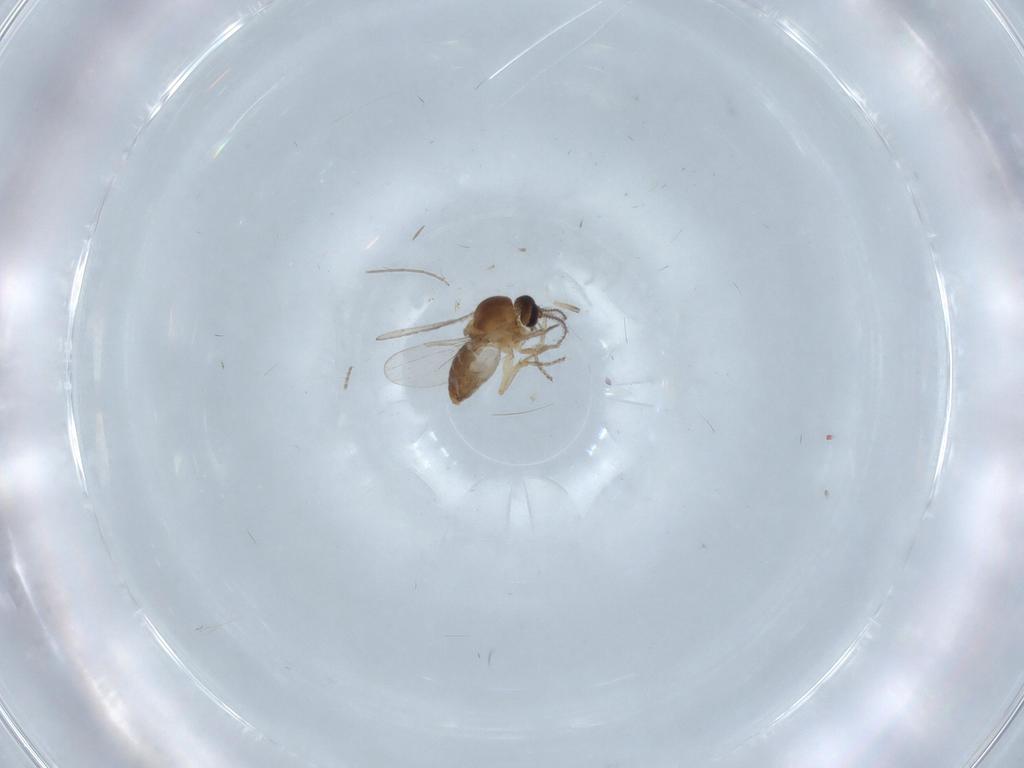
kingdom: Animalia
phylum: Arthropoda
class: Insecta
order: Diptera
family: Ceratopogonidae
